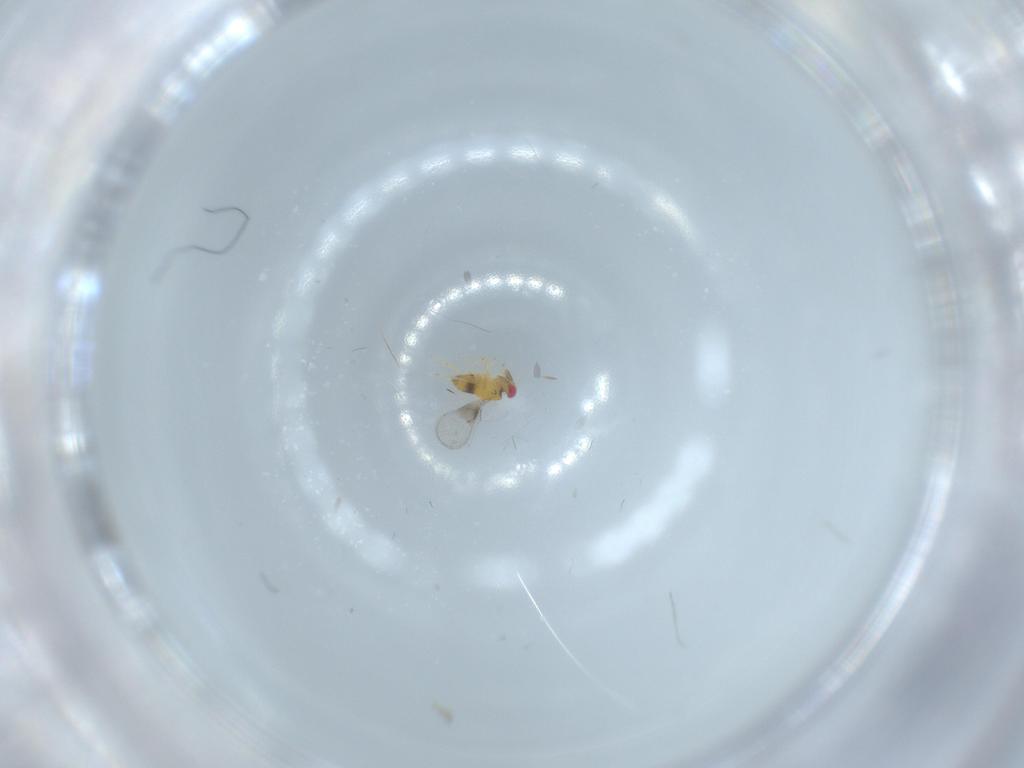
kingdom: Animalia
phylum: Arthropoda
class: Insecta
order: Hymenoptera
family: Trichogrammatidae
